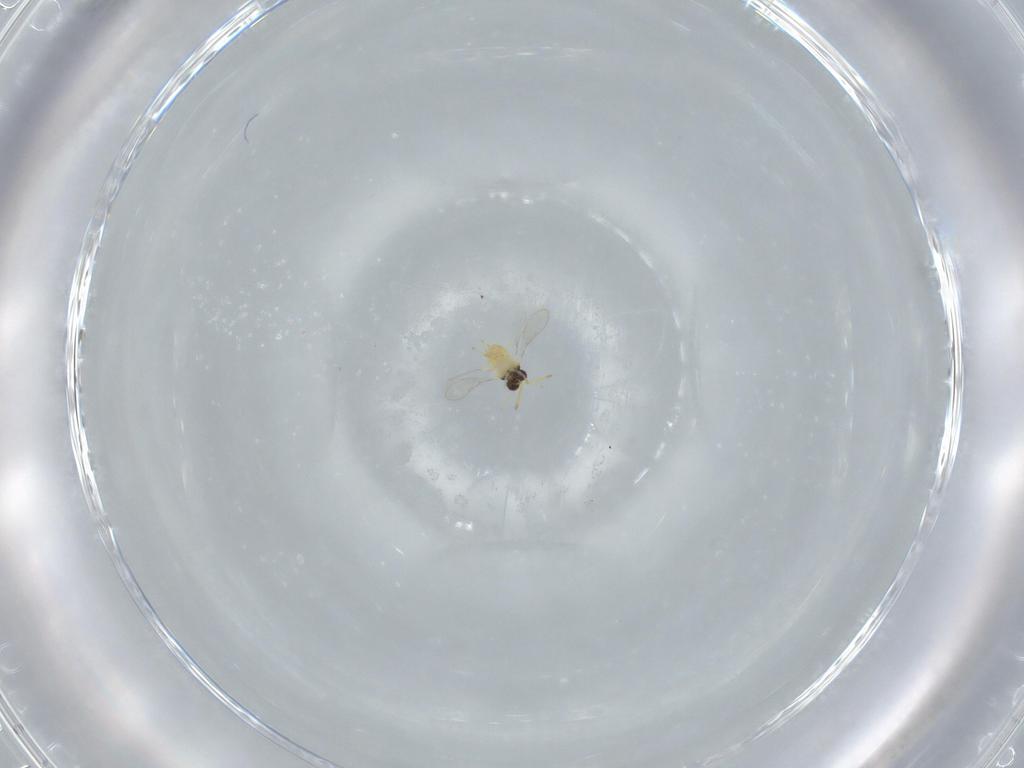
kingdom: Animalia
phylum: Arthropoda
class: Insecta
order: Hymenoptera
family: Aphelinidae
